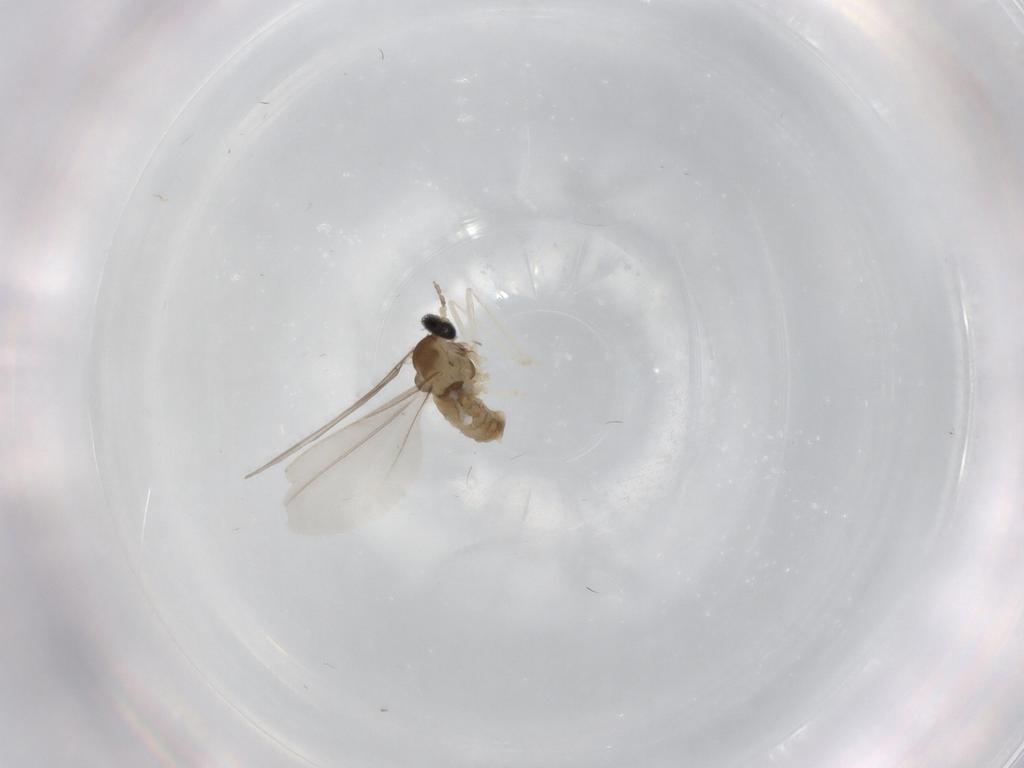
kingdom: Animalia
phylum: Arthropoda
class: Insecta
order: Diptera
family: Cecidomyiidae
